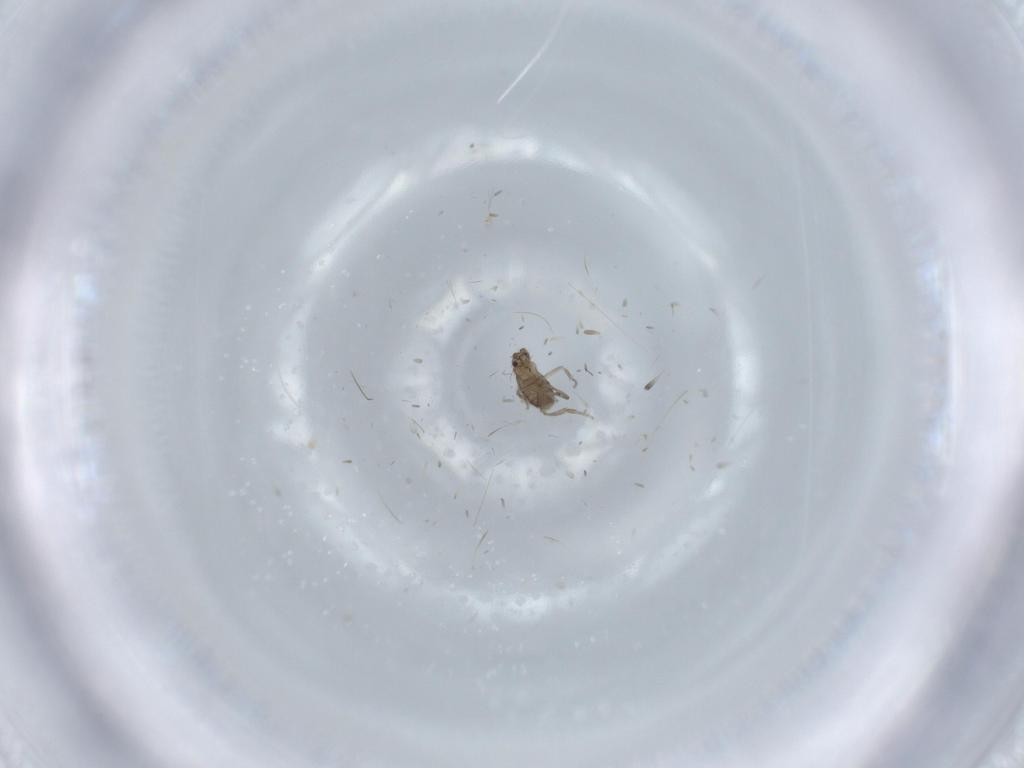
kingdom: Animalia
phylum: Arthropoda
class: Insecta
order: Diptera
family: Phoridae
